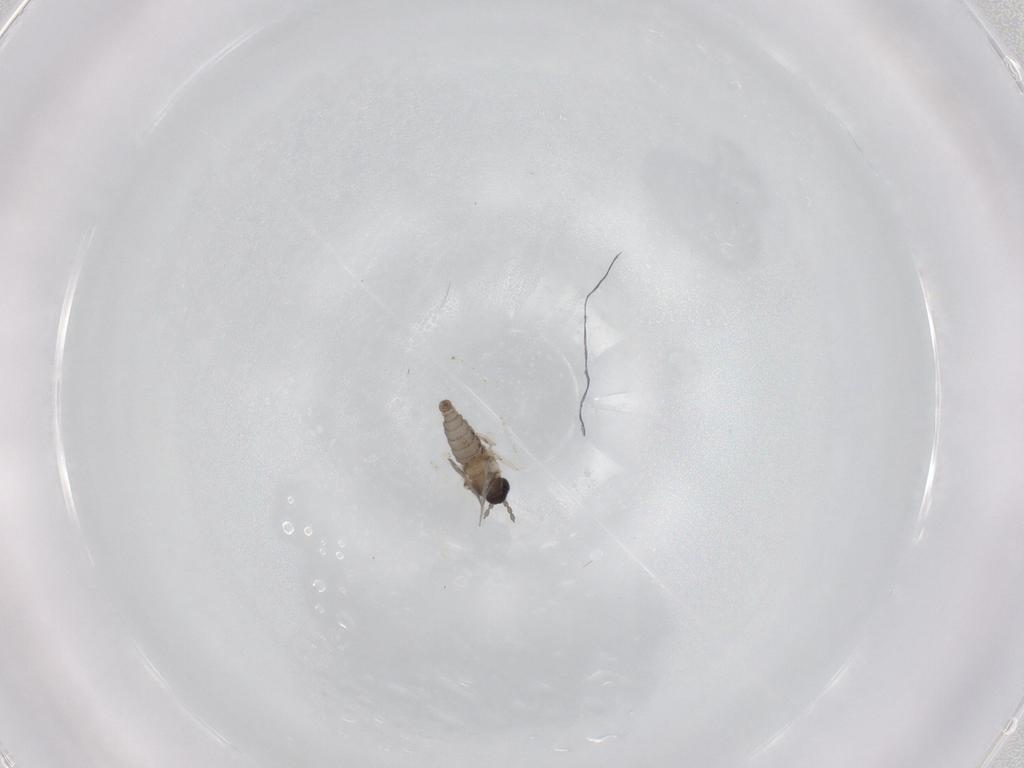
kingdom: Animalia
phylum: Arthropoda
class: Insecta
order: Diptera
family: Cecidomyiidae
